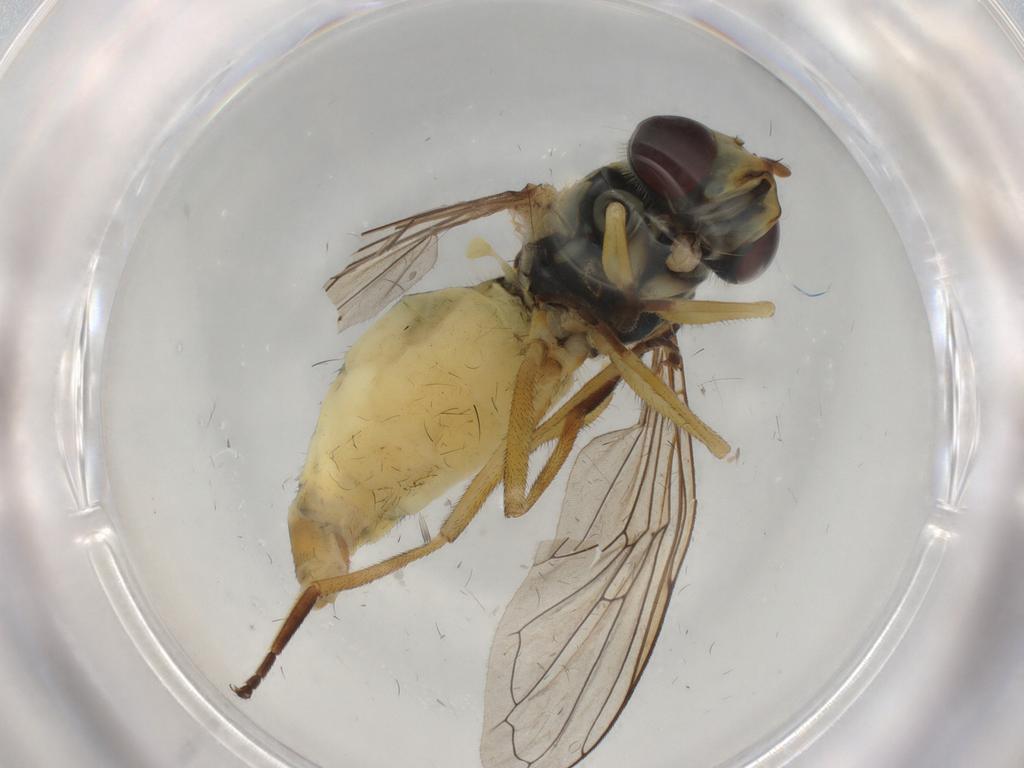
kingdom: Animalia
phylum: Arthropoda
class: Insecta
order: Diptera
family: Syrphidae
